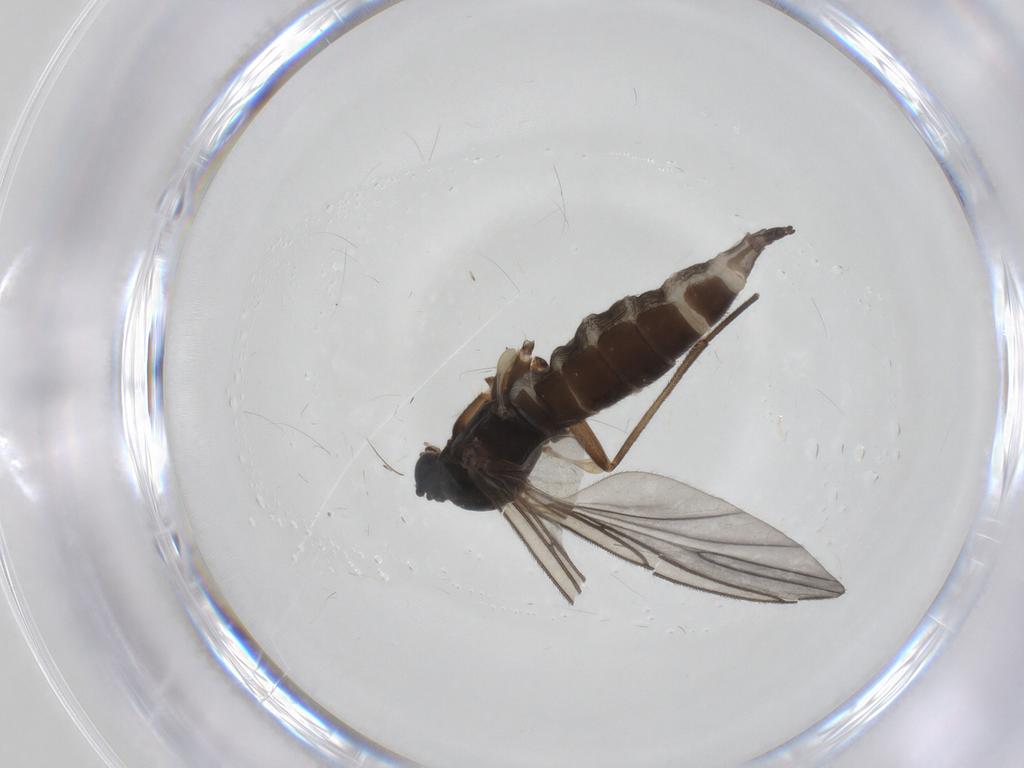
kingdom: Animalia
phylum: Arthropoda
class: Insecta
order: Diptera
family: Sciaridae
